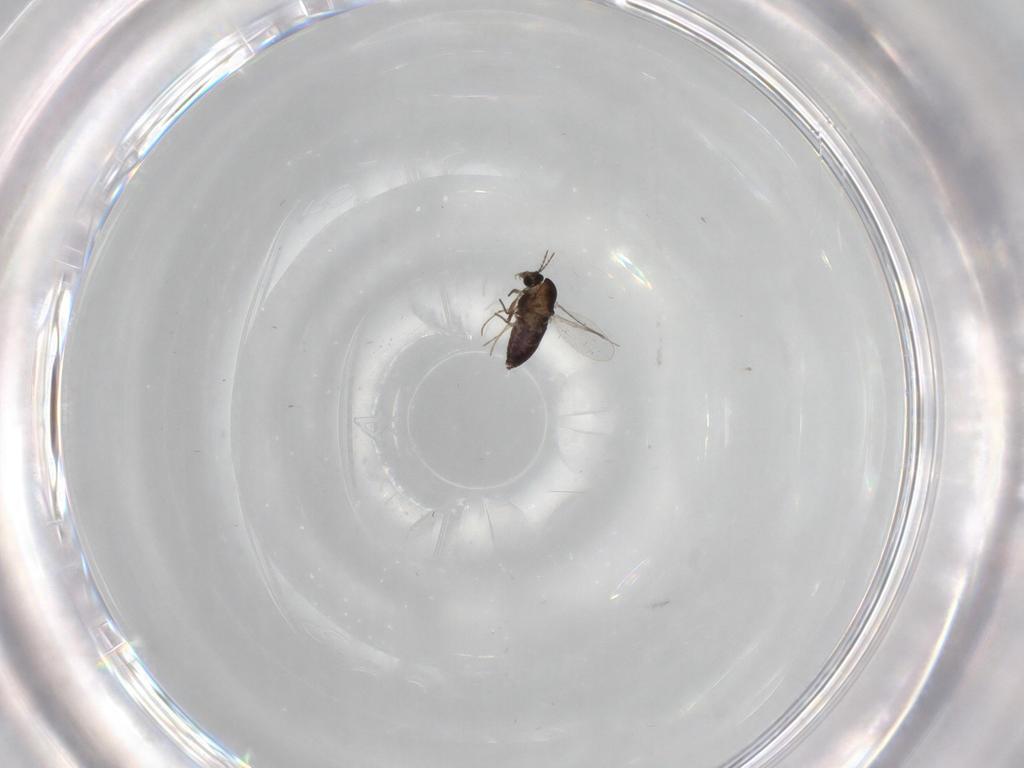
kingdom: Animalia
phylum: Arthropoda
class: Insecta
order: Diptera
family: Chironomidae
